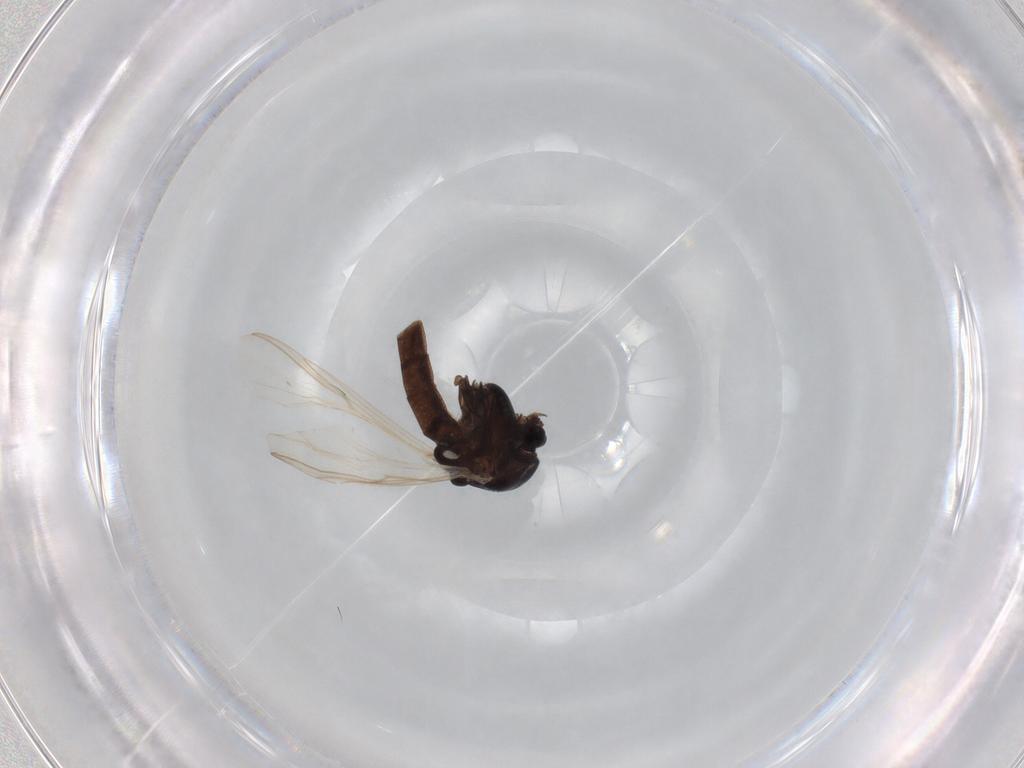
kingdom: Animalia
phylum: Arthropoda
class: Insecta
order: Diptera
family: Chironomidae
